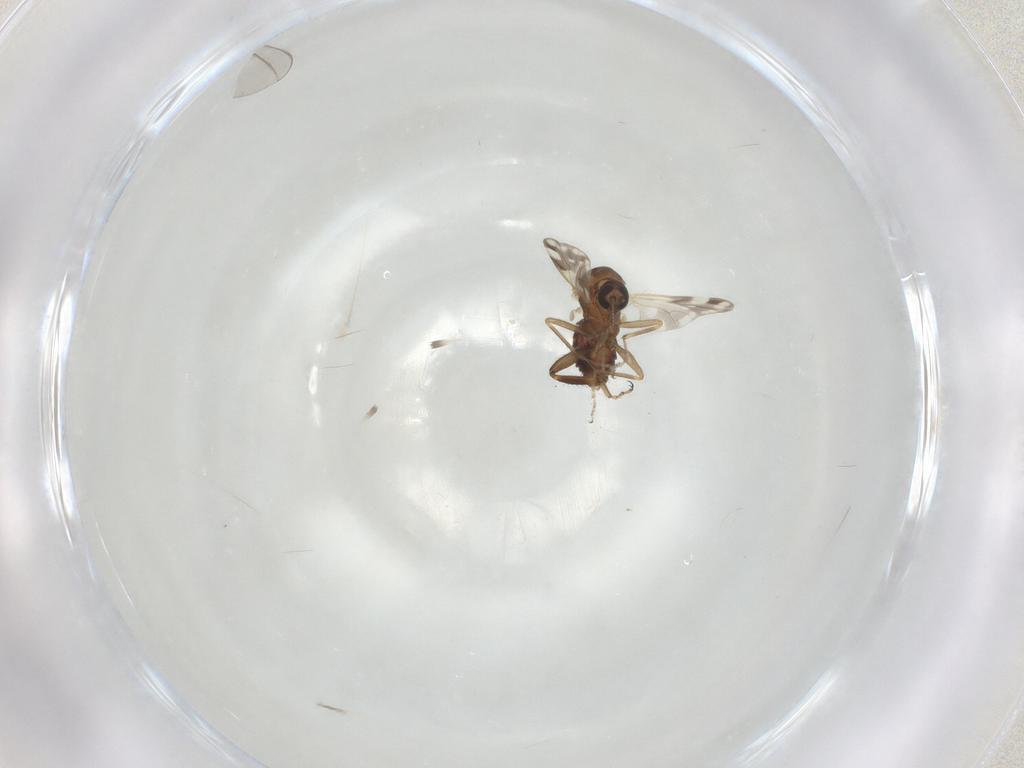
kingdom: Animalia
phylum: Arthropoda
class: Insecta
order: Diptera
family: Ceratopogonidae
